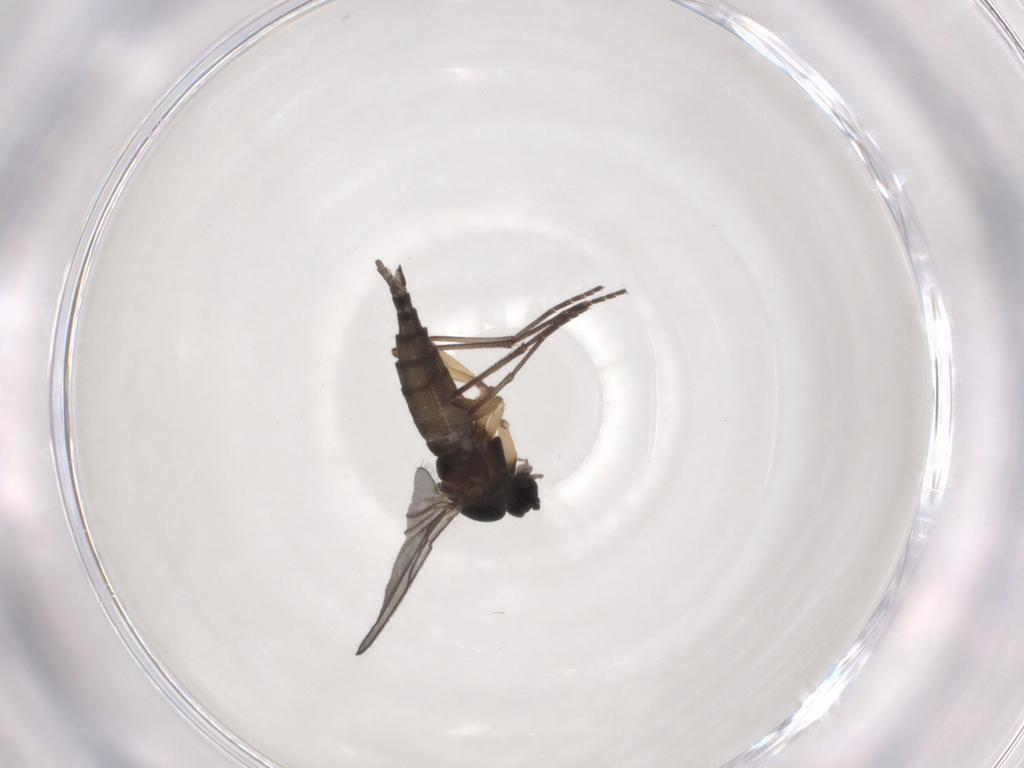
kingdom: Animalia
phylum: Arthropoda
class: Insecta
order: Diptera
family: Sciaridae
